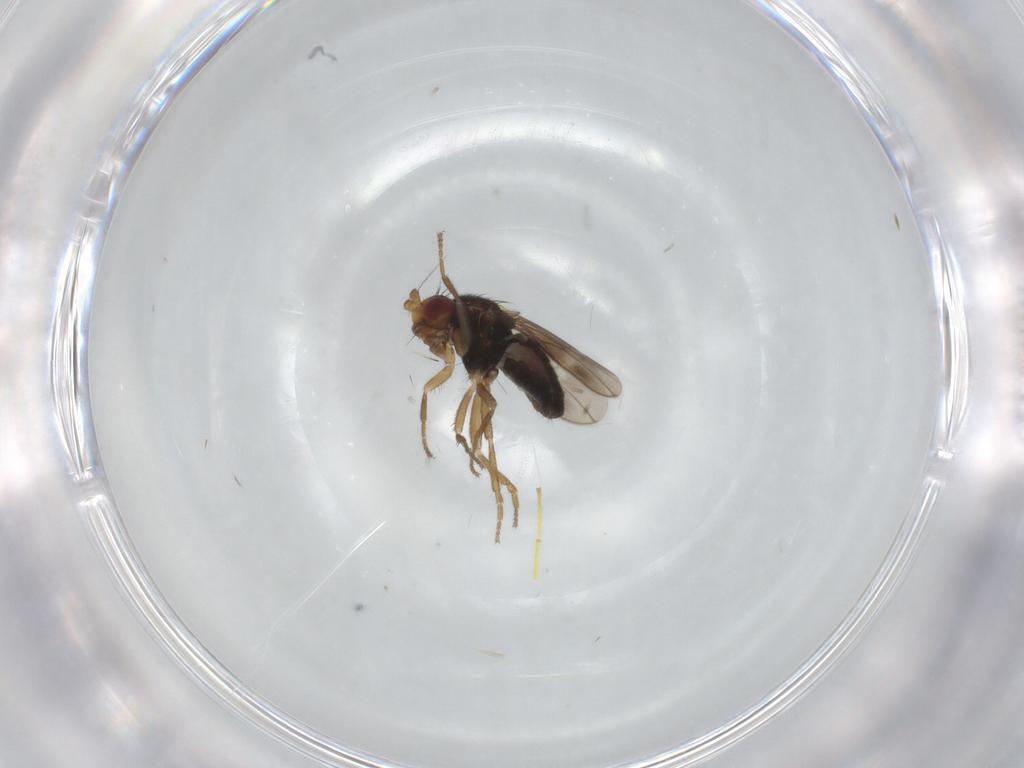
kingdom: Animalia
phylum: Arthropoda
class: Insecta
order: Diptera
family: Sphaeroceridae
